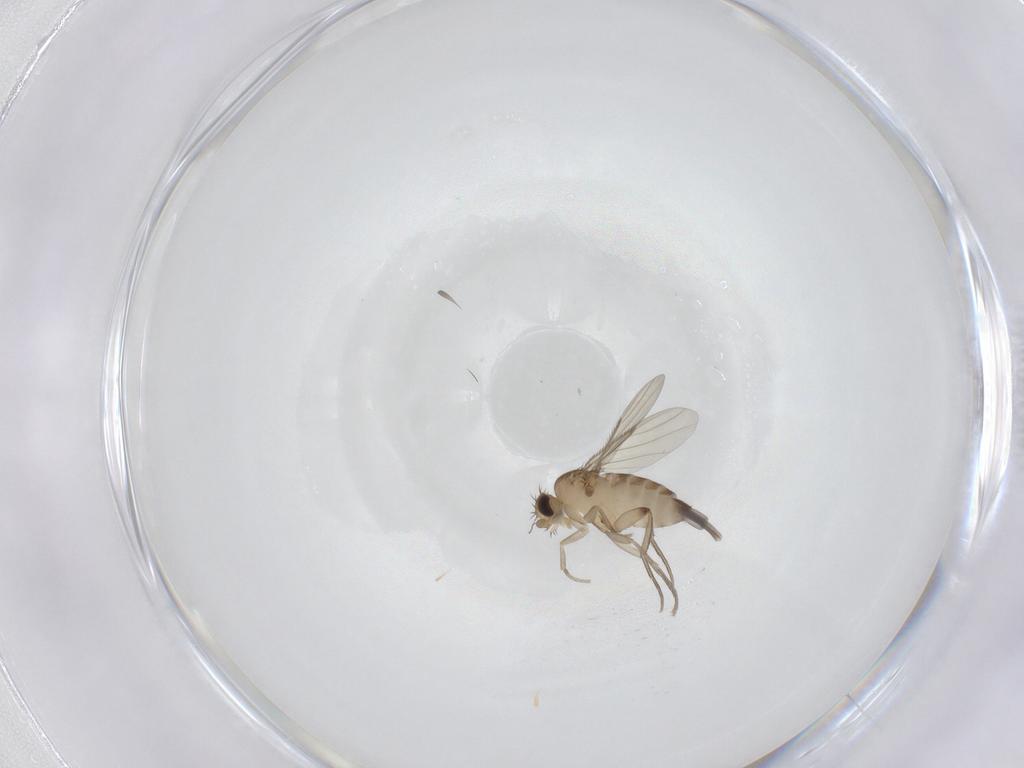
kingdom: Animalia
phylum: Arthropoda
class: Insecta
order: Diptera
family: Phoridae
